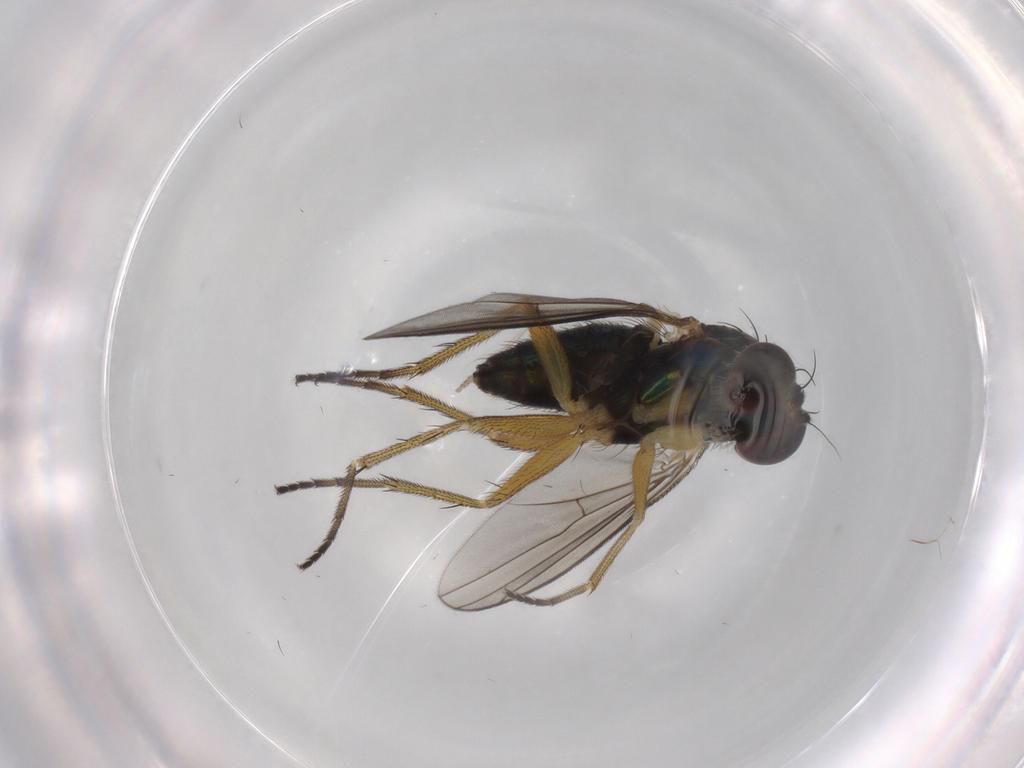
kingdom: Animalia
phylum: Arthropoda
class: Insecta
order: Diptera
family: Dolichopodidae
